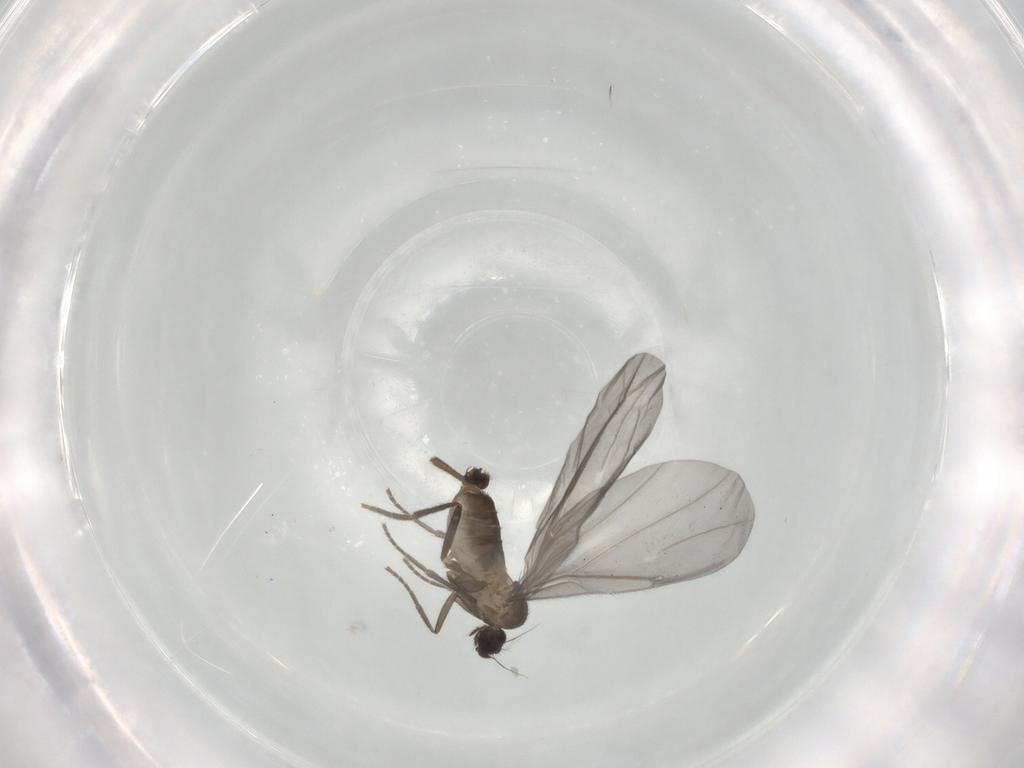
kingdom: Animalia
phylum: Arthropoda
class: Insecta
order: Diptera
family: Phoridae
